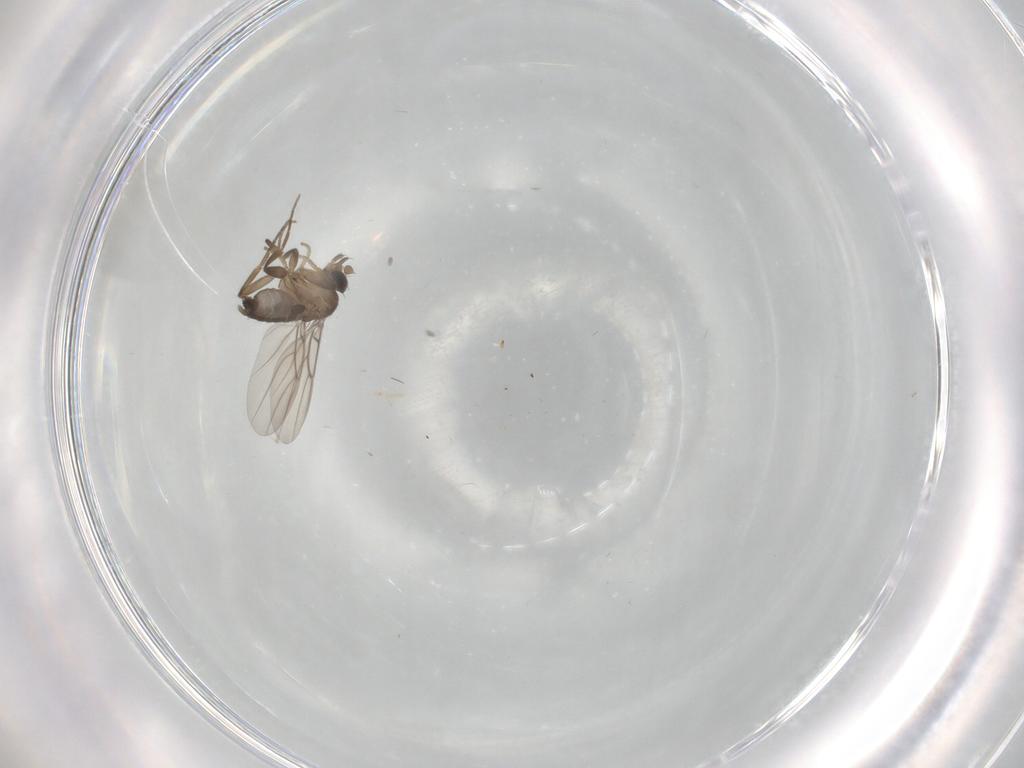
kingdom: Animalia
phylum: Arthropoda
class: Insecta
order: Diptera
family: Phoridae
